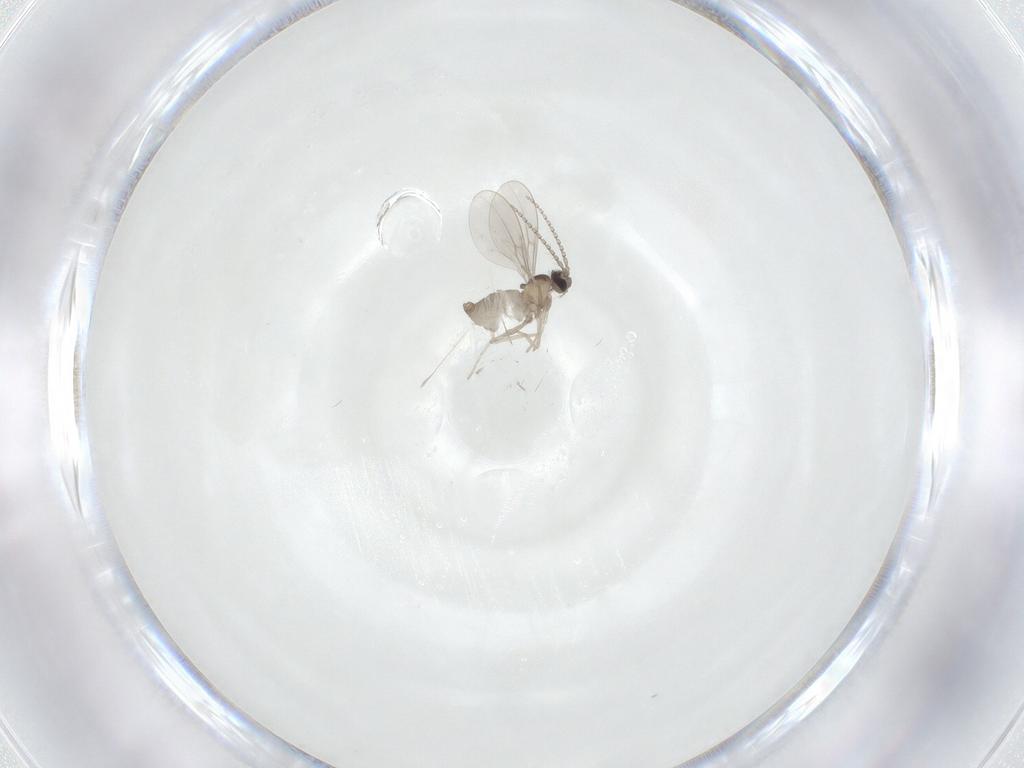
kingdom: Animalia
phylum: Arthropoda
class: Insecta
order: Diptera
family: Cecidomyiidae
